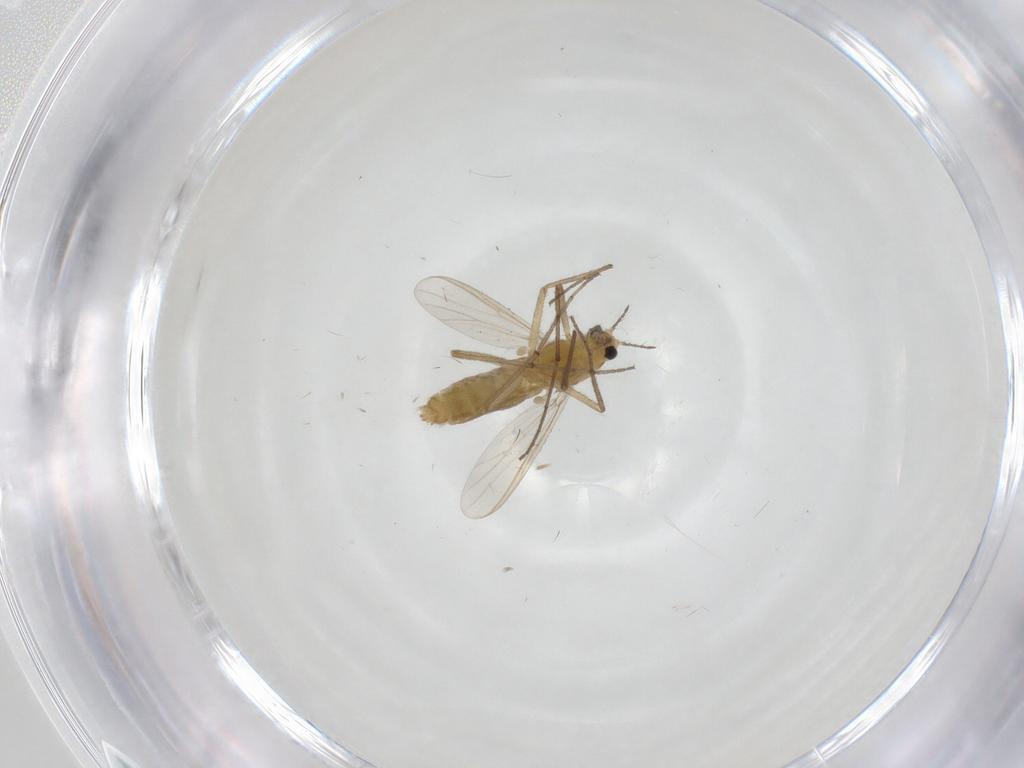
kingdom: Animalia
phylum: Arthropoda
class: Insecta
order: Diptera
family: Chironomidae
